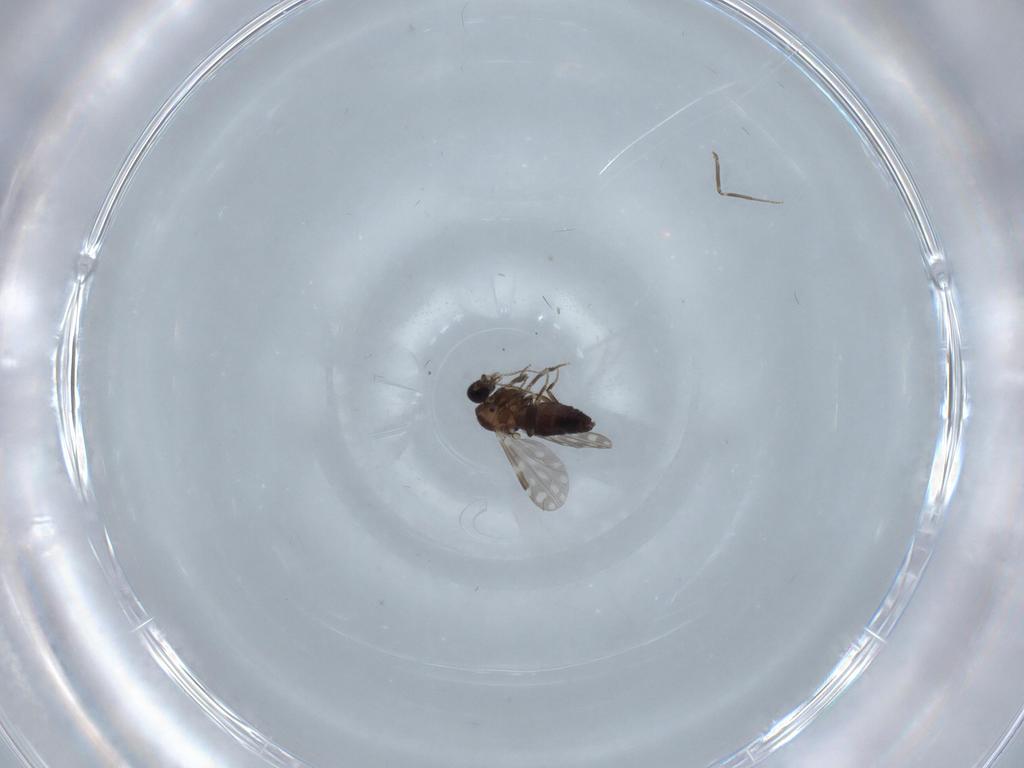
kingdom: Animalia
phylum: Arthropoda
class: Insecta
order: Diptera
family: Ceratopogonidae
